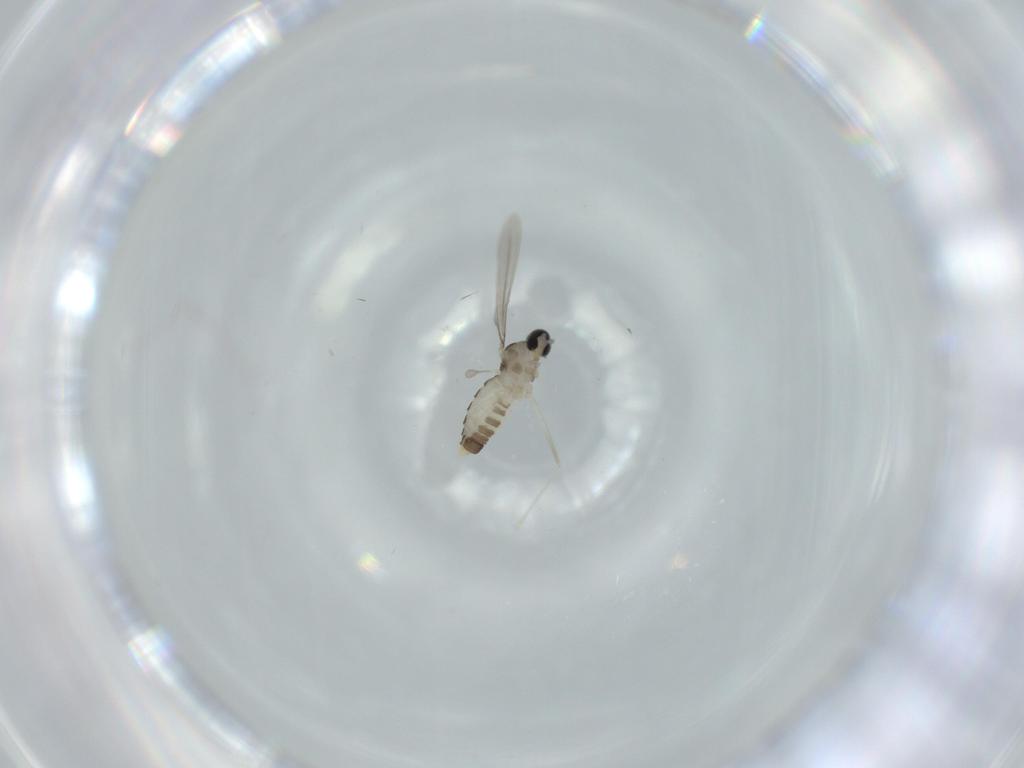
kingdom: Animalia
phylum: Arthropoda
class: Insecta
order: Diptera
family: Cecidomyiidae
